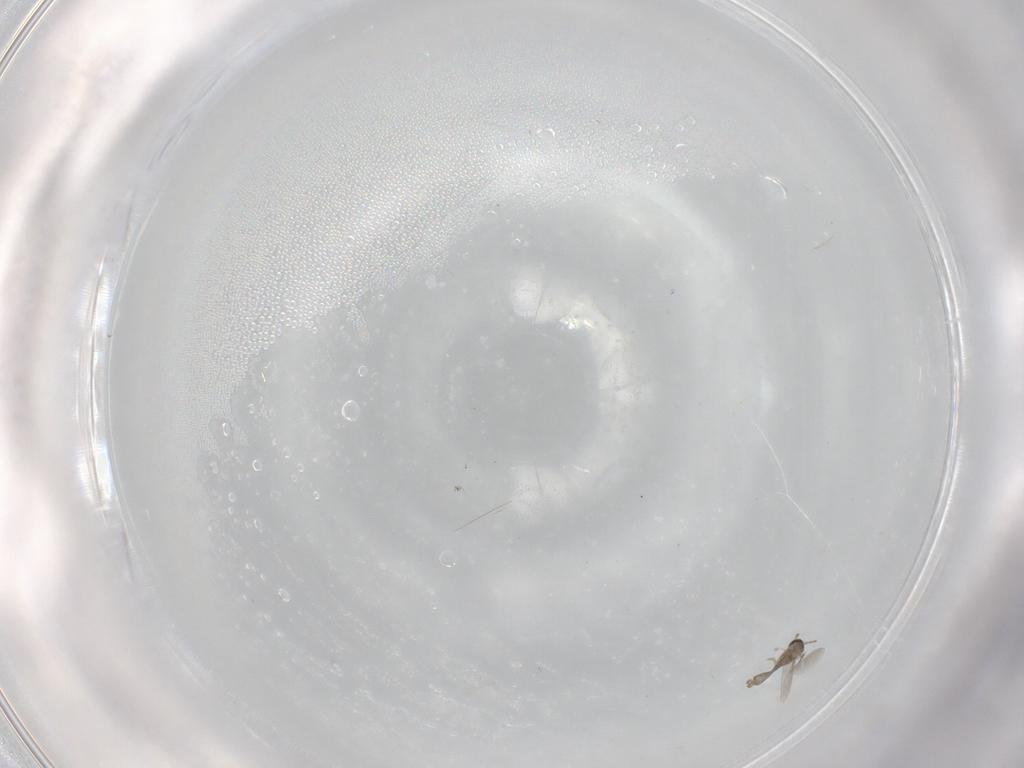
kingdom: Animalia
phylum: Arthropoda
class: Insecta
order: Diptera
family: Cecidomyiidae
